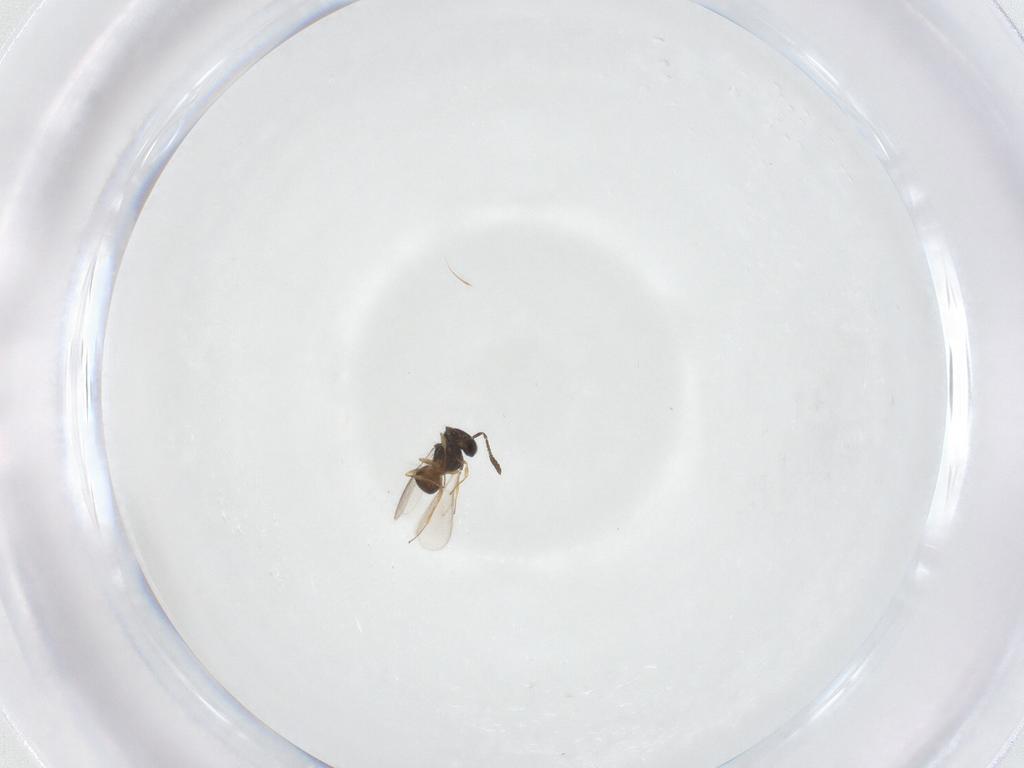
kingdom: Animalia
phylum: Arthropoda
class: Insecta
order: Hymenoptera
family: Scelionidae
